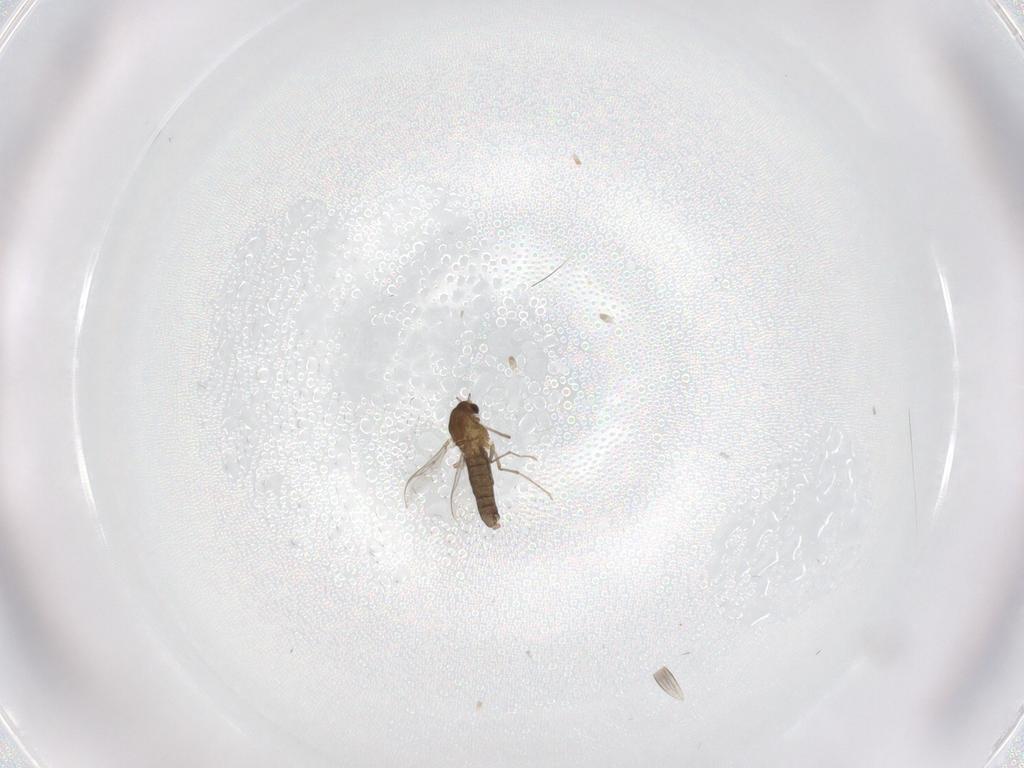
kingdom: Animalia
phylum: Arthropoda
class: Insecta
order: Diptera
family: Chironomidae
